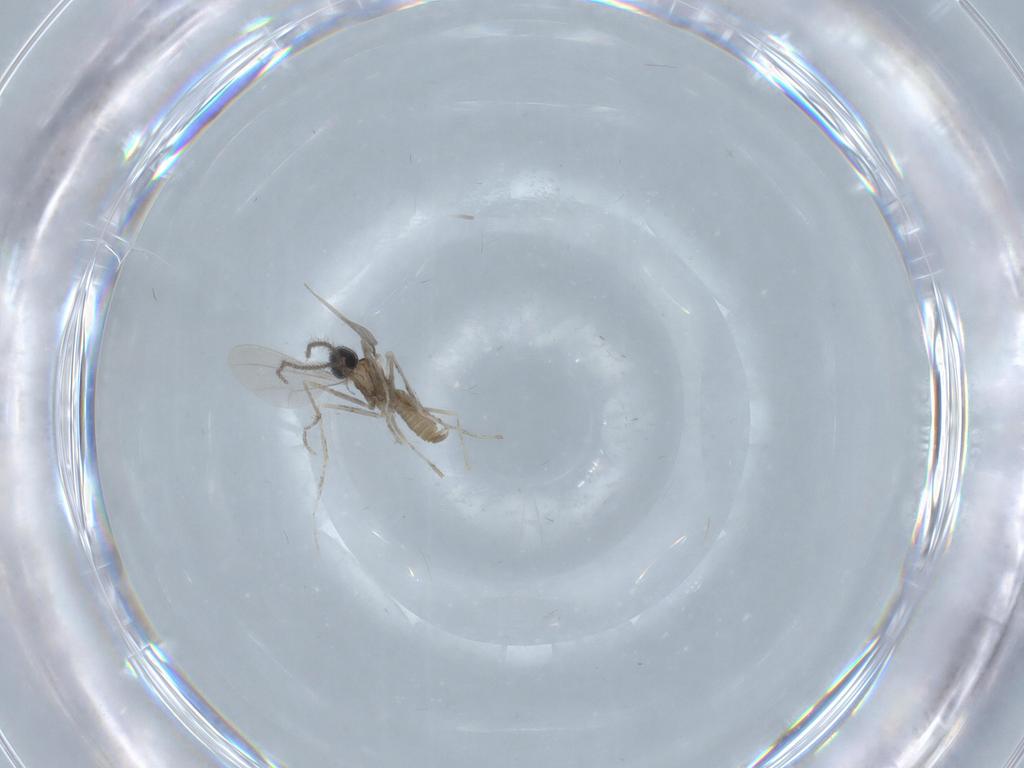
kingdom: Animalia
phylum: Arthropoda
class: Insecta
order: Diptera
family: Cecidomyiidae
